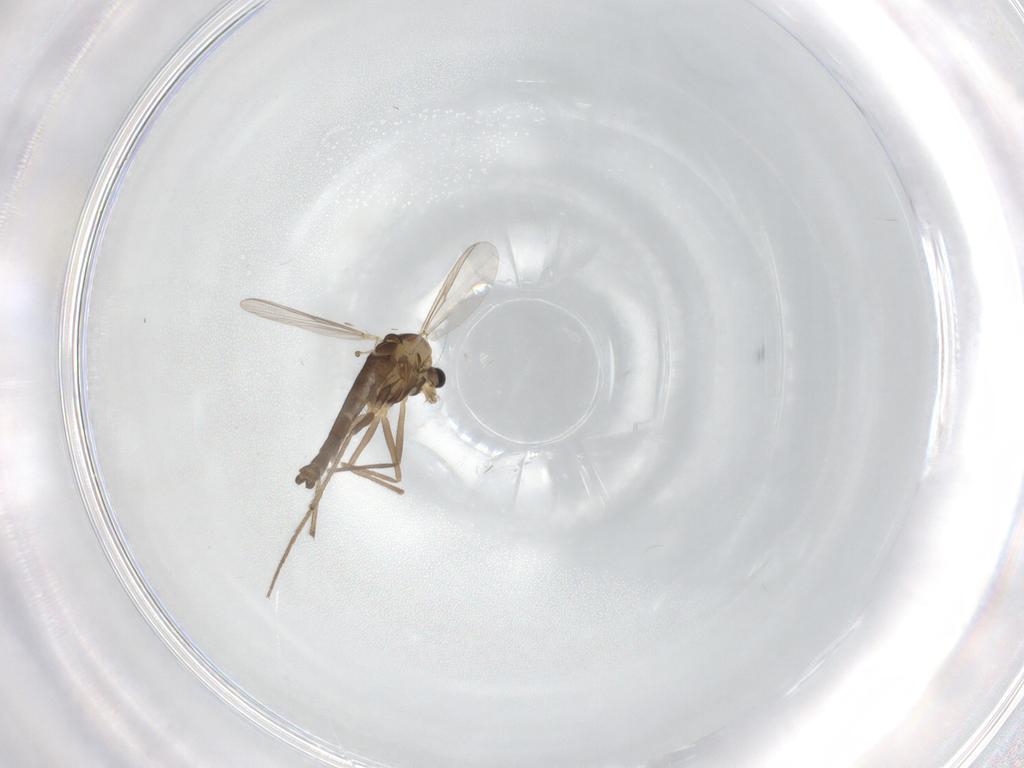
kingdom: Animalia
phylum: Arthropoda
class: Insecta
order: Diptera
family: Chironomidae
